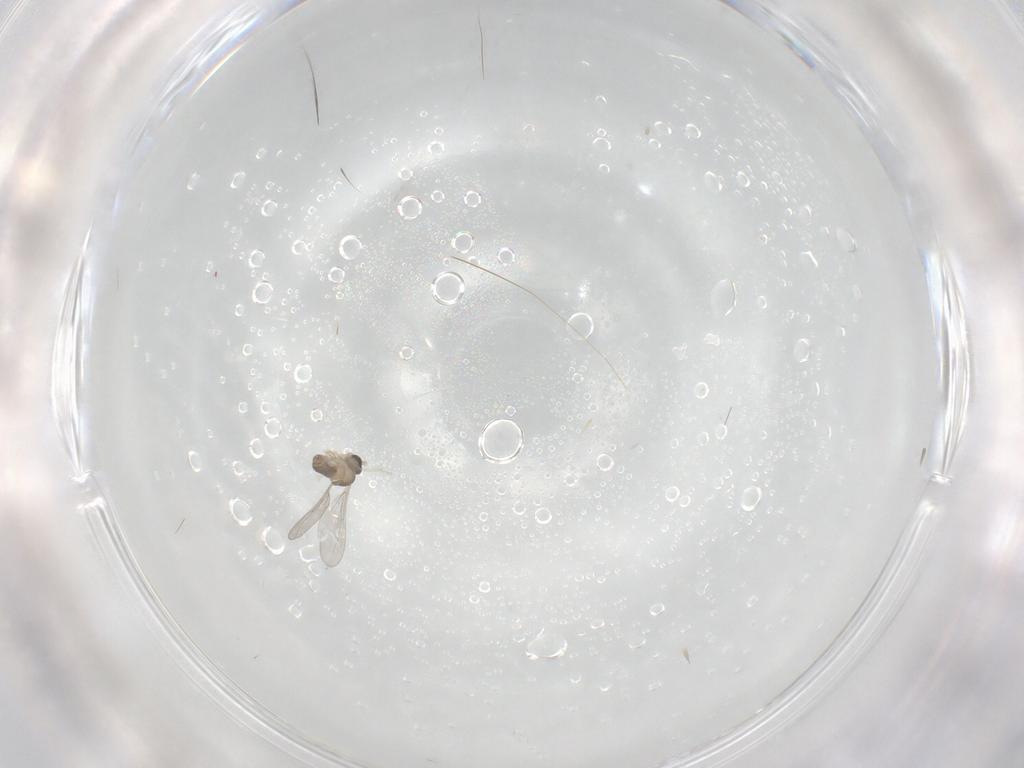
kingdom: Animalia
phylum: Arthropoda
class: Insecta
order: Diptera
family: Cecidomyiidae
